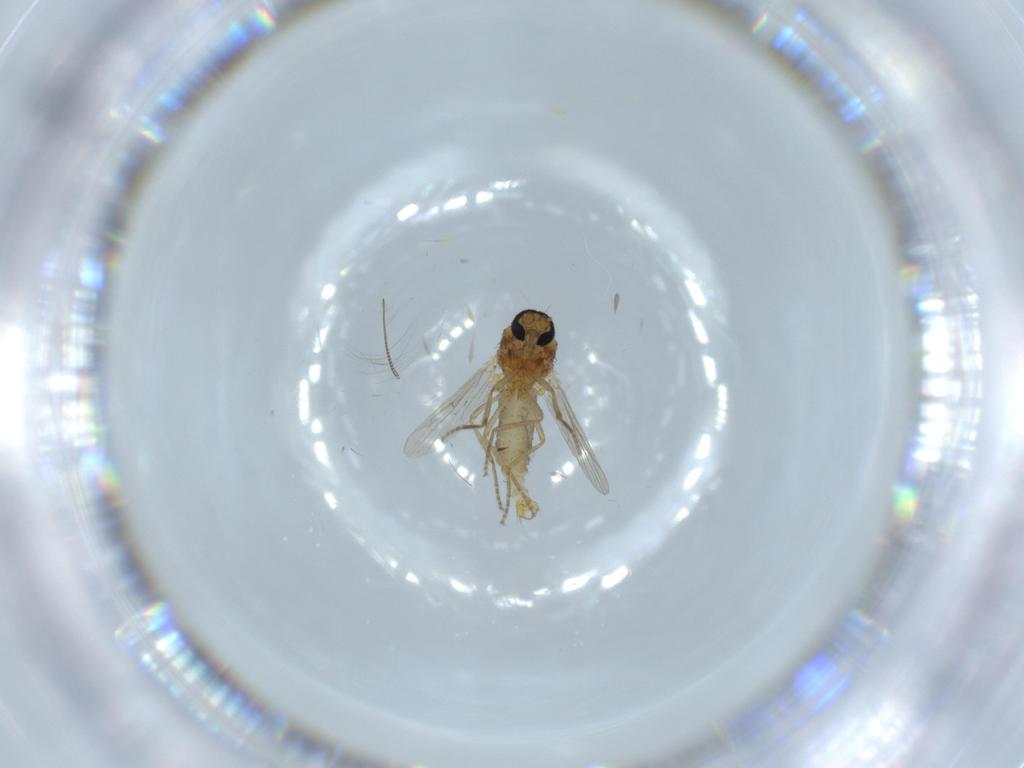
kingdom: Animalia
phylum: Arthropoda
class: Insecta
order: Diptera
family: Ceratopogonidae
